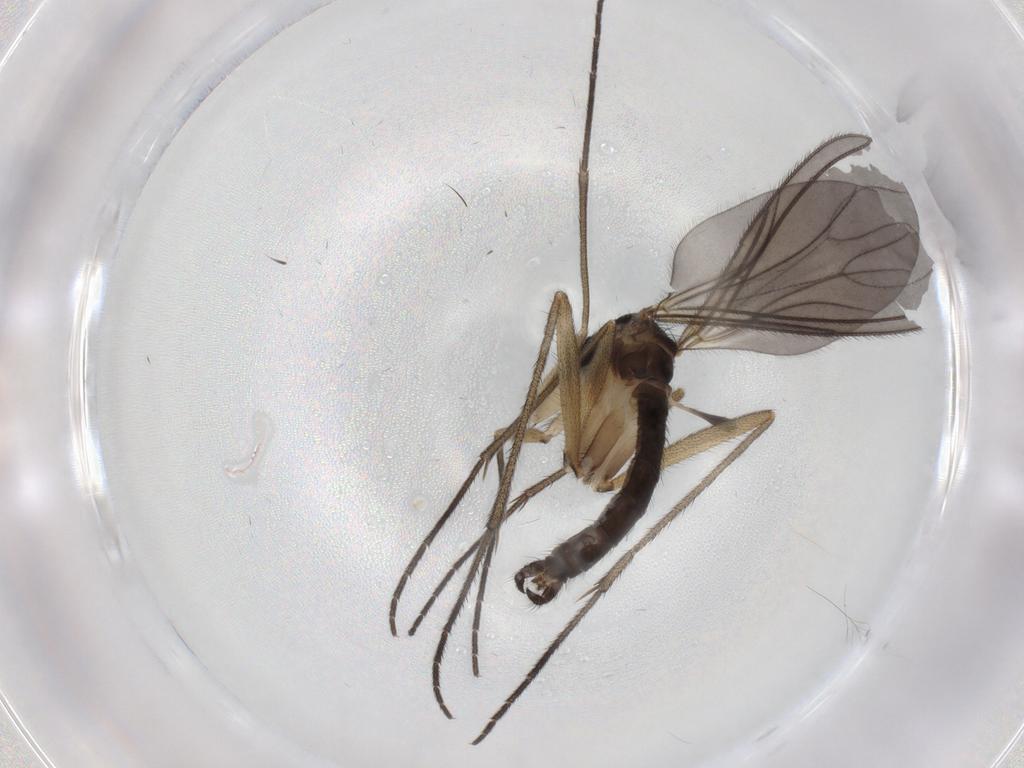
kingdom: Animalia
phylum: Arthropoda
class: Insecta
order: Diptera
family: Sciaridae
